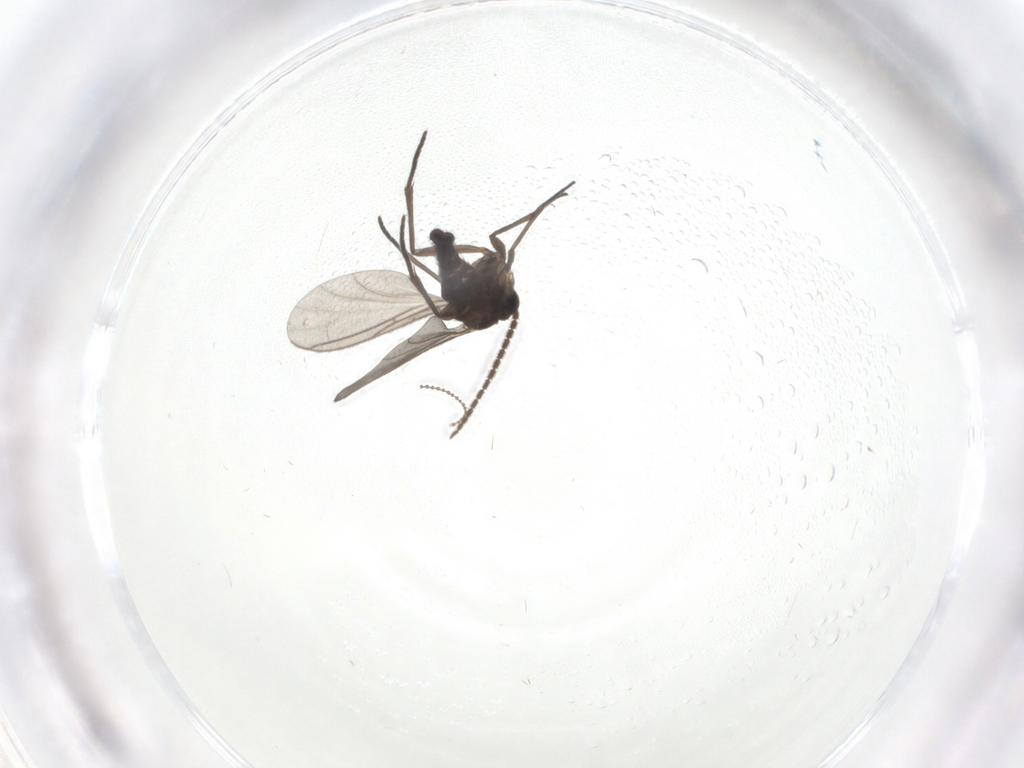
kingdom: Animalia
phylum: Arthropoda
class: Insecta
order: Diptera
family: Sciaridae
